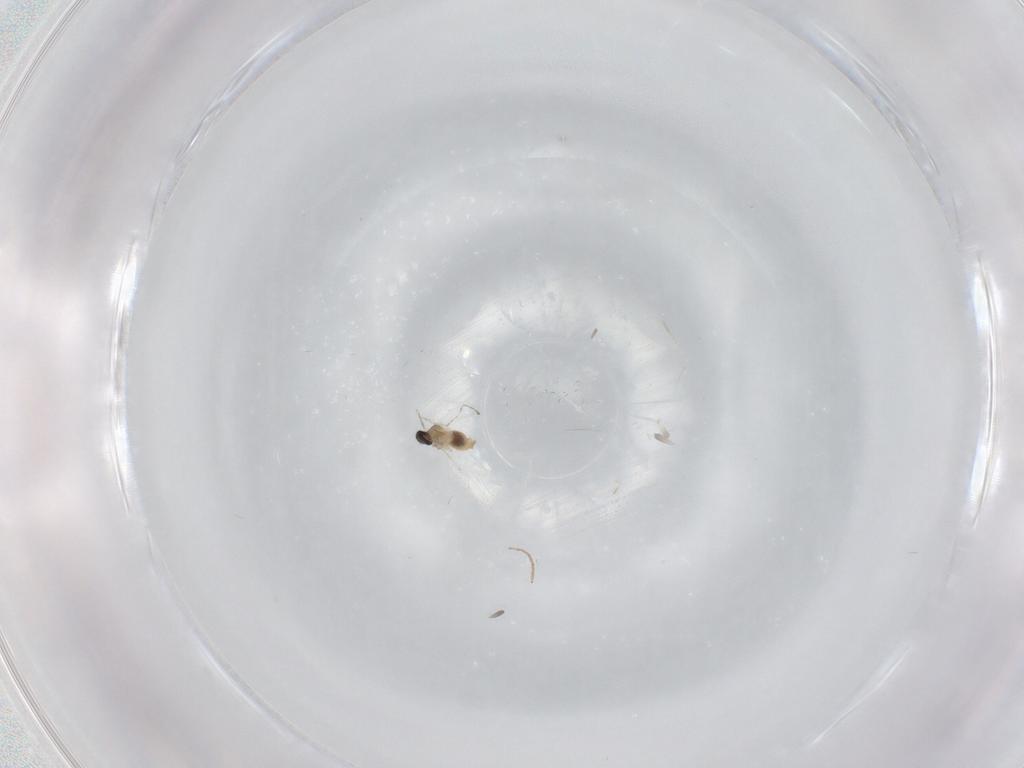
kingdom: Animalia
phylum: Arthropoda
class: Insecta
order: Diptera
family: Cecidomyiidae
